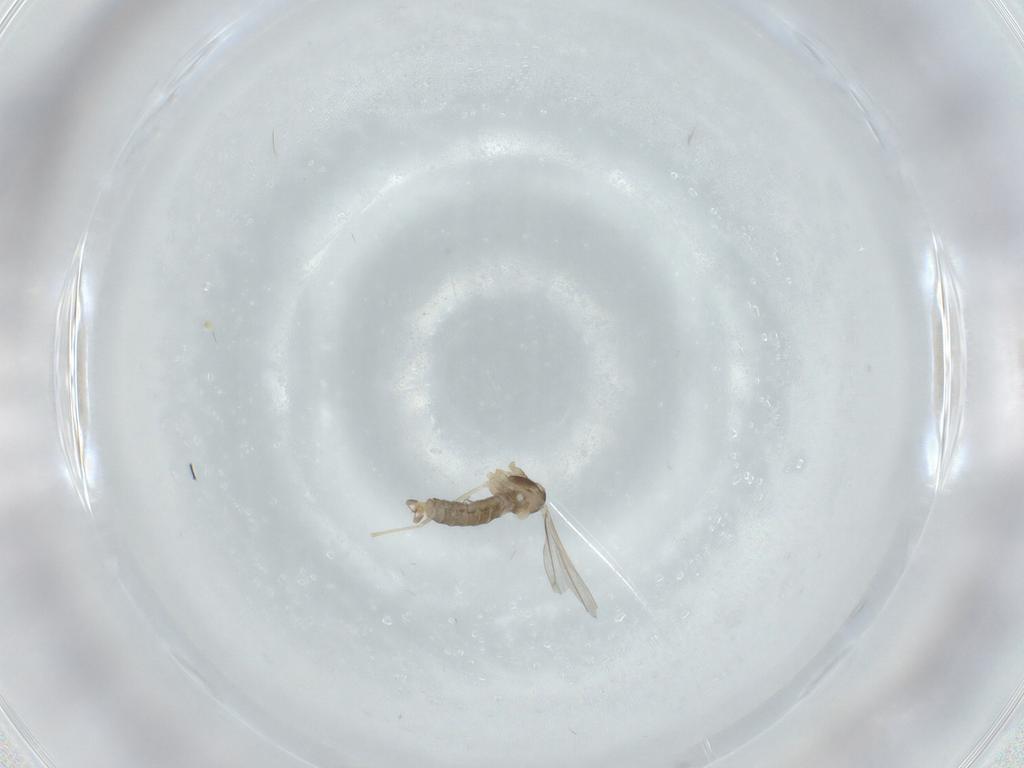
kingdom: Animalia
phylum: Arthropoda
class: Insecta
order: Diptera
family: Cecidomyiidae
